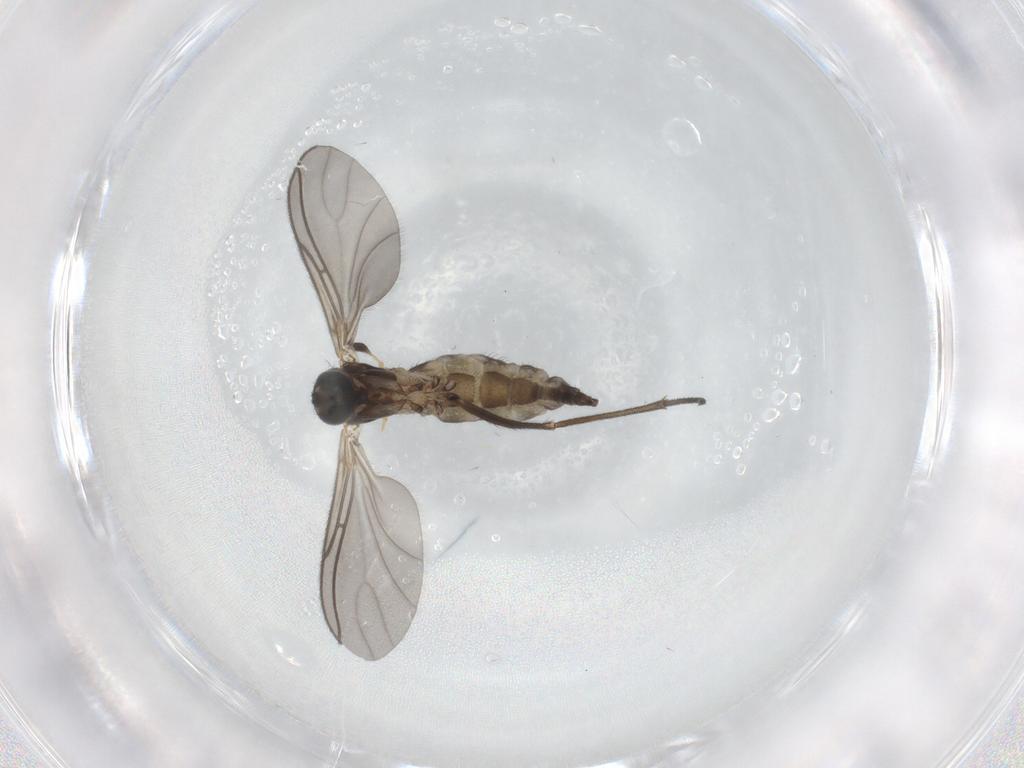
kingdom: Animalia
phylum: Arthropoda
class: Insecta
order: Diptera
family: Sciaridae
